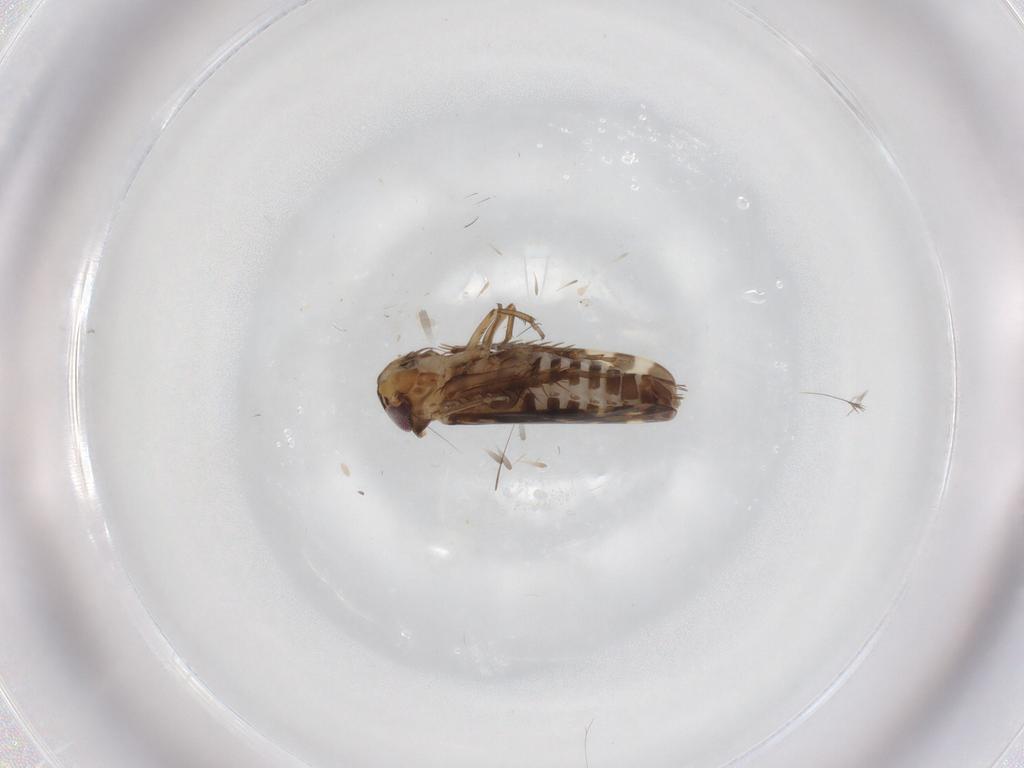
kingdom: Animalia
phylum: Arthropoda
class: Insecta
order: Hemiptera
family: Cicadellidae
